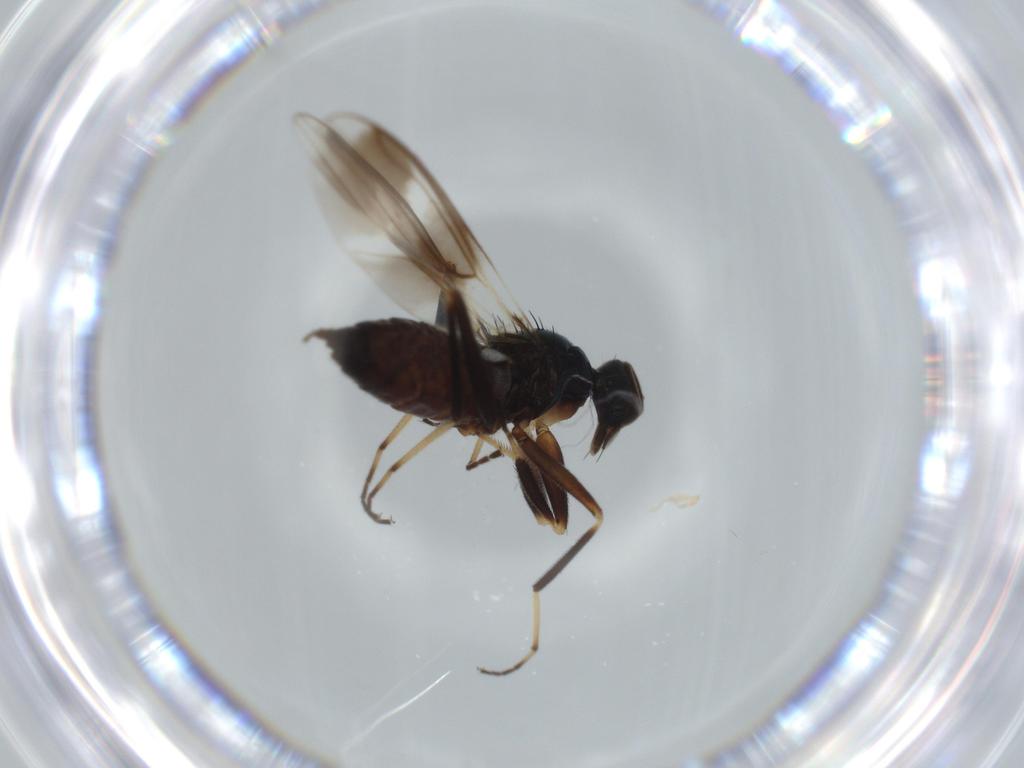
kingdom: Animalia
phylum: Arthropoda
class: Insecta
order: Diptera
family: Hybotidae
